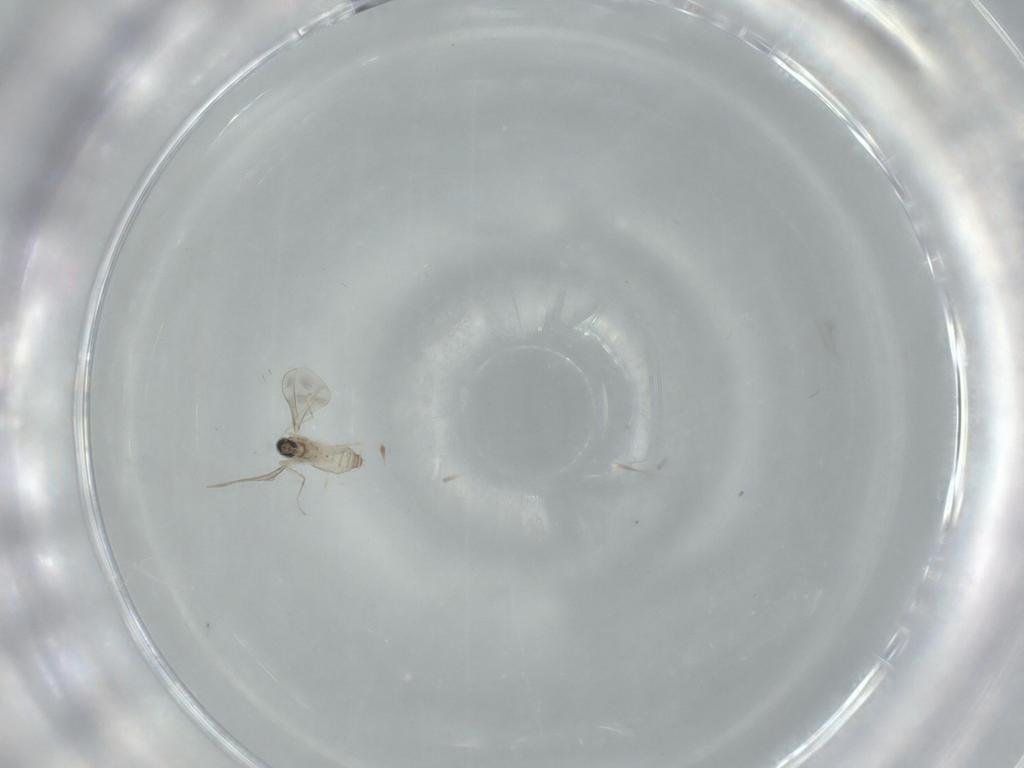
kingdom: Animalia
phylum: Arthropoda
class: Insecta
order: Diptera
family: Cecidomyiidae
